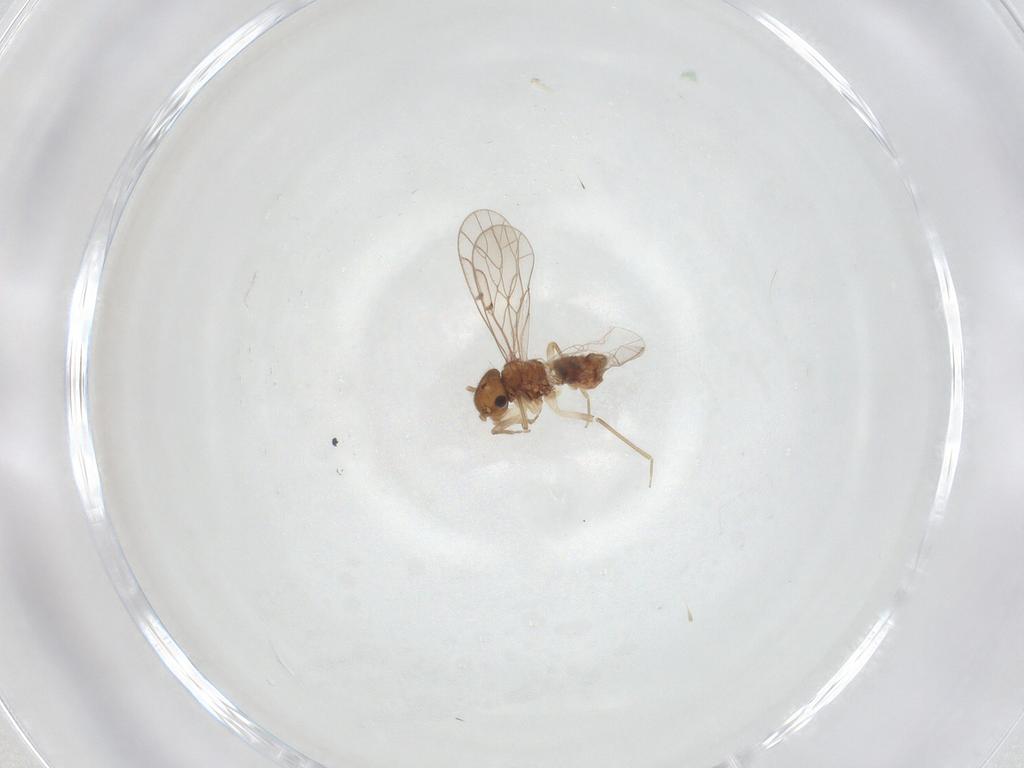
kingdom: Animalia
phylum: Arthropoda
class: Insecta
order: Psocodea
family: Ectopsocidae
